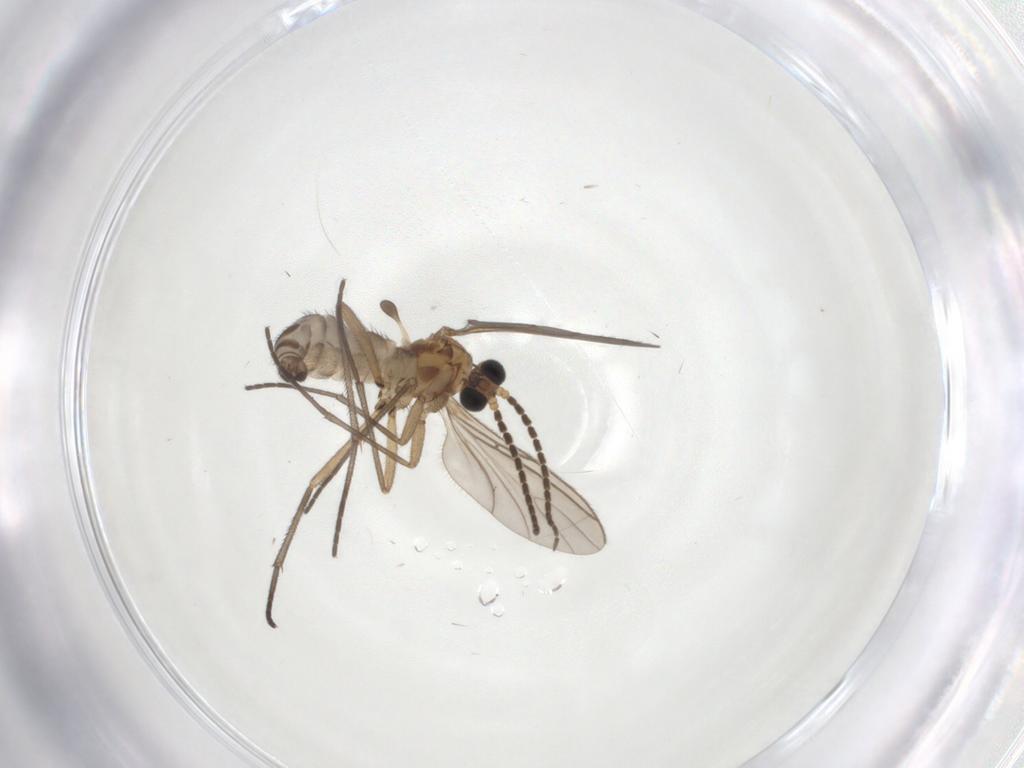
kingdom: Animalia
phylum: Arthropoda
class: Insecta
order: Diptera
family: Sciaridae
